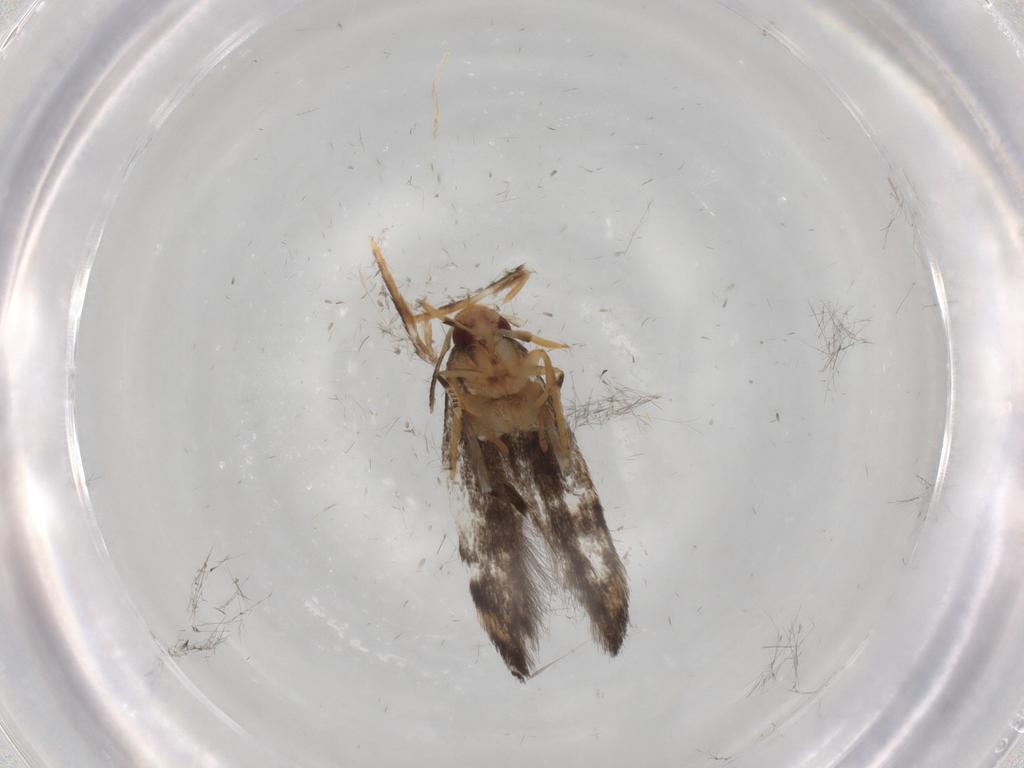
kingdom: Animalia
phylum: Arthropoda
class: Insecta
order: Lepidoptera
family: Gelechiidae
